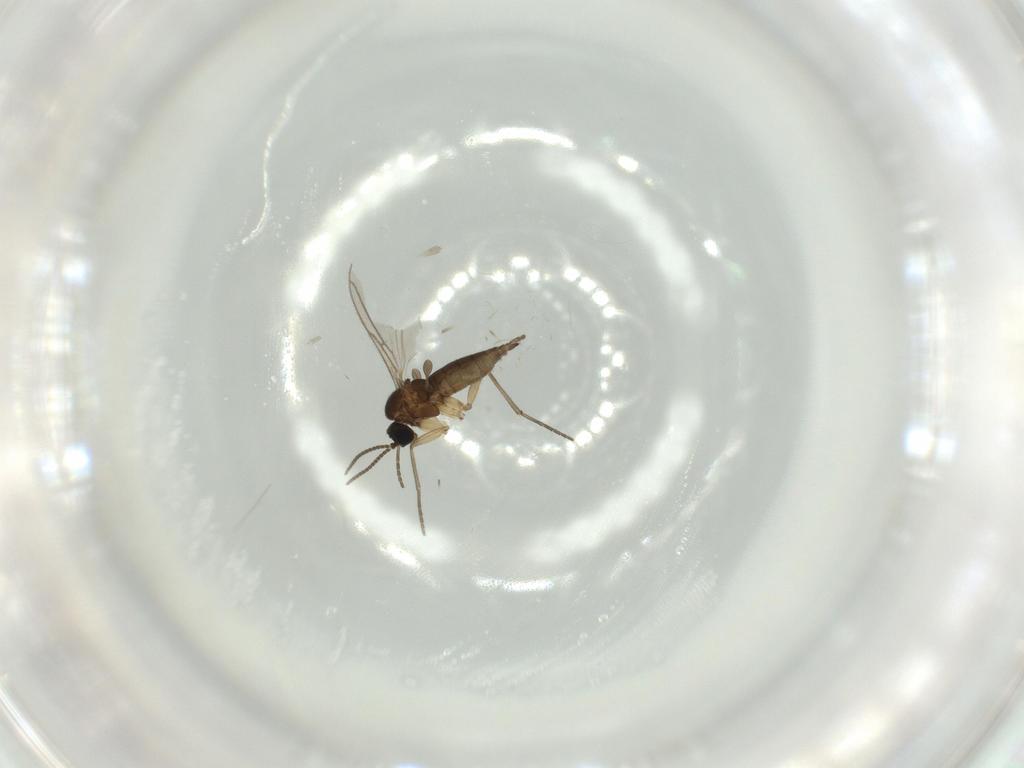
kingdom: Animalia
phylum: Arthropoda
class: Insecta
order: Diptera
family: Sciaridae
